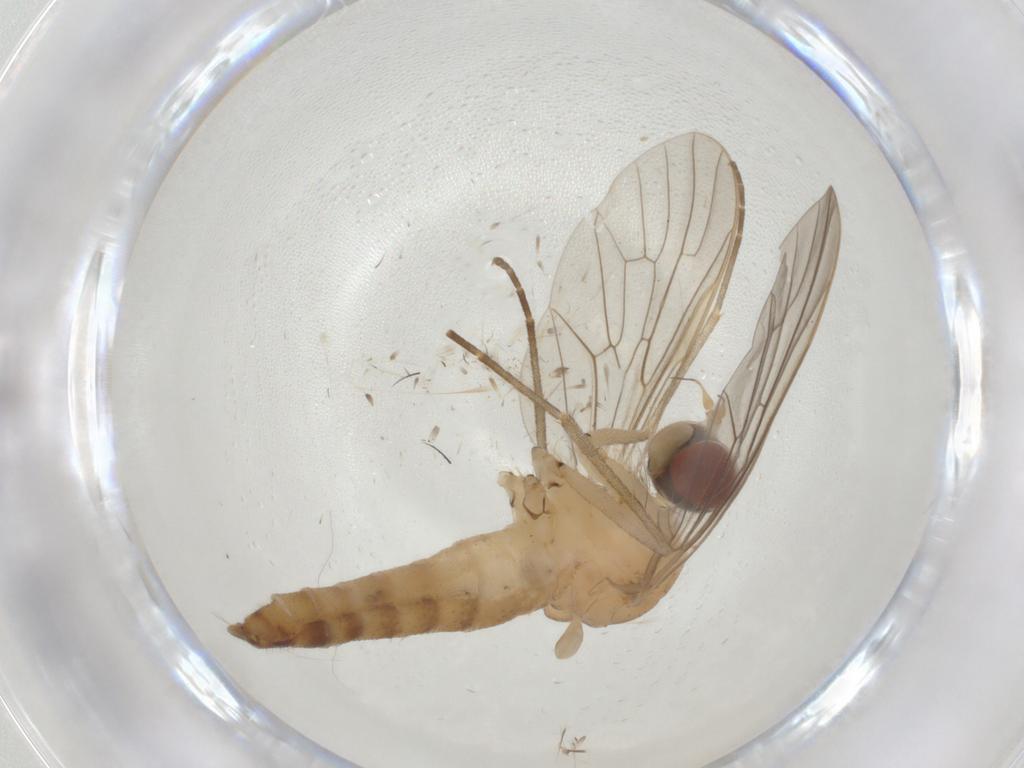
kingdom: Animalia
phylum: Arthropoda
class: Insecta
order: Diptera
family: Apsilocephalidae
